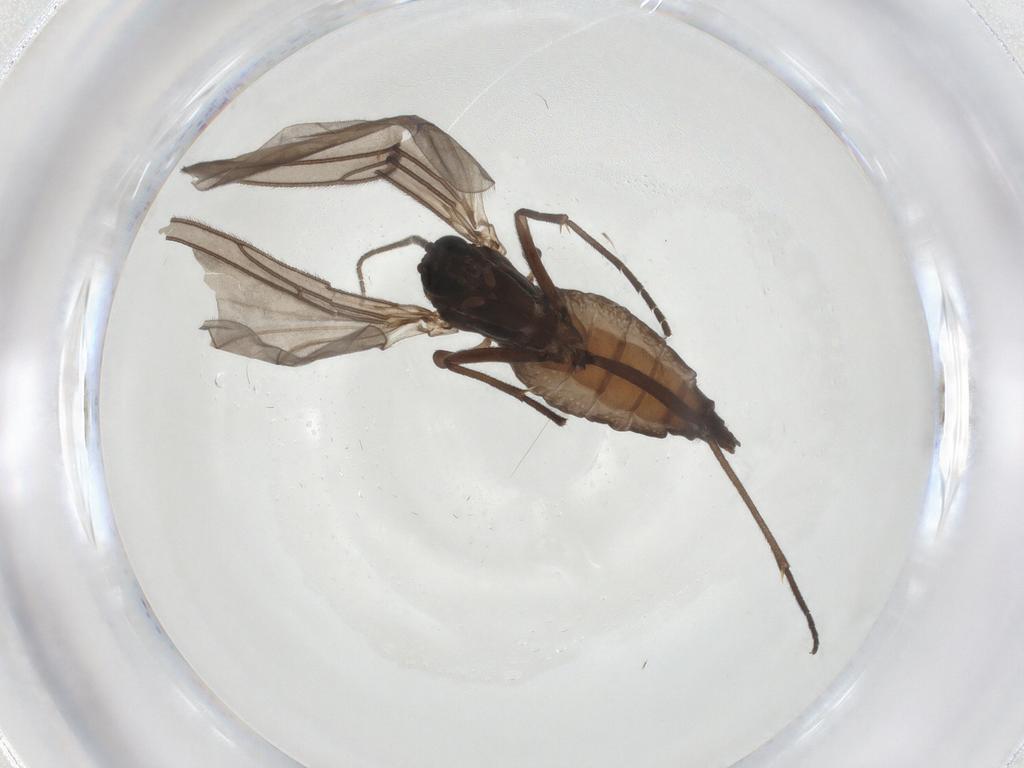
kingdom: Animalia
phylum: Arthropoda
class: Insecta
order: Diptera
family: Sciaridae
